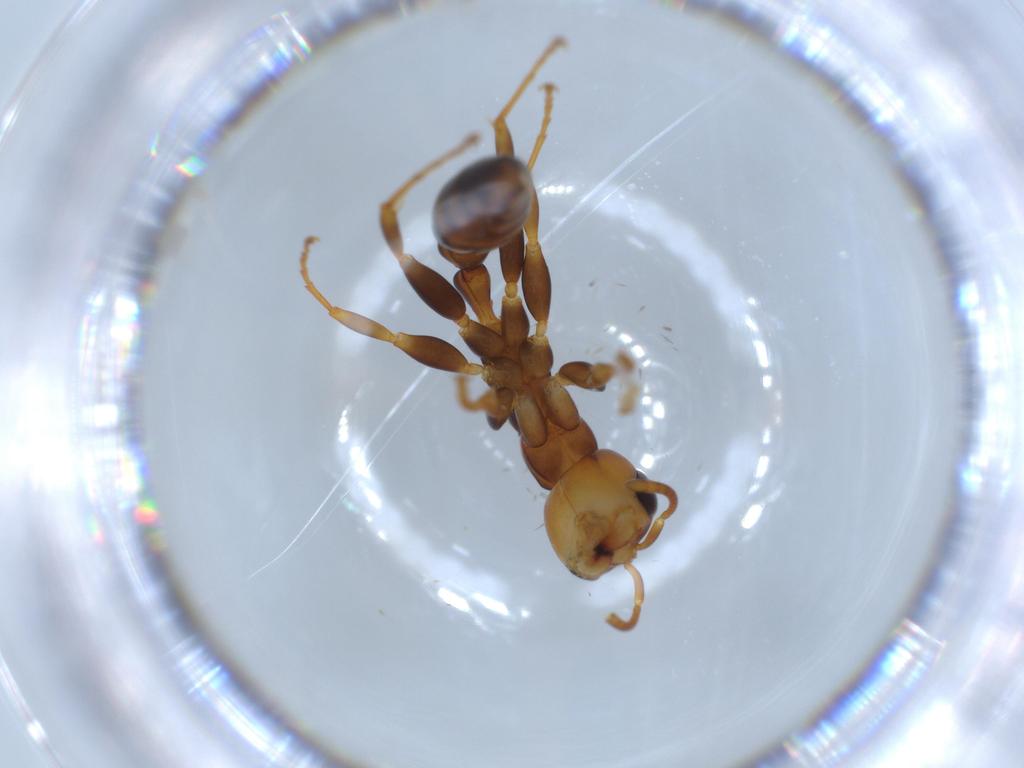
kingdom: Animalia
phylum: Arthropoda
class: Insecta
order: Hymenoptera
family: Formicidae
